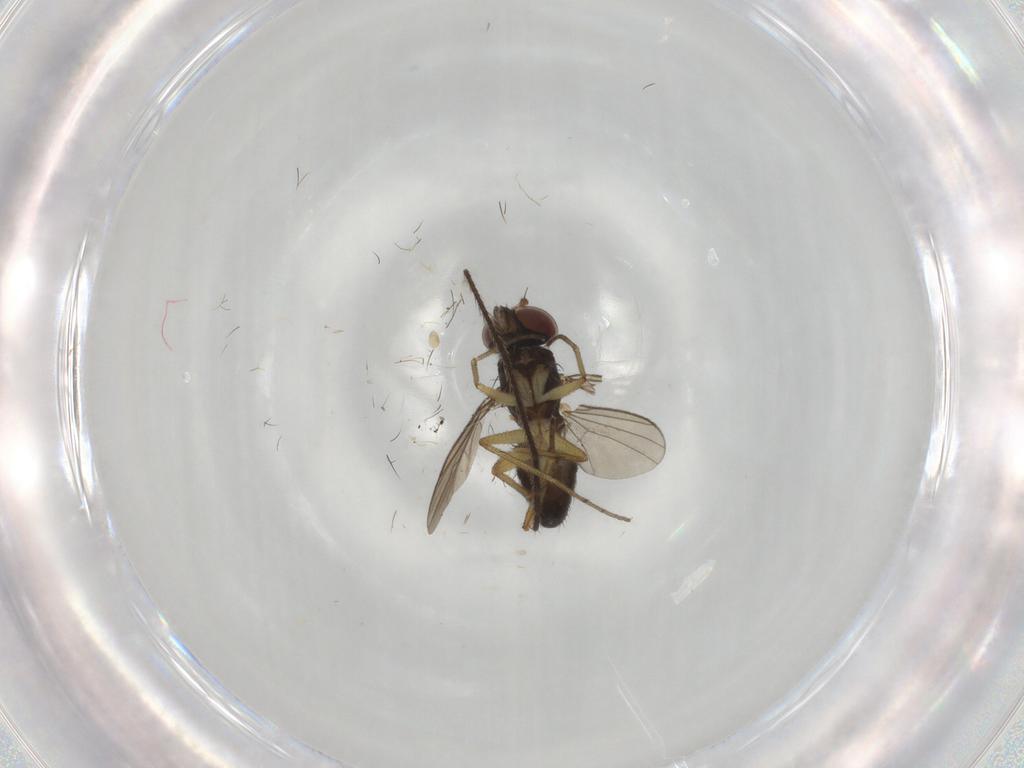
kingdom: Animalia
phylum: Arthropoda
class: Insecta
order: Diptera
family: Dolichopodidae
